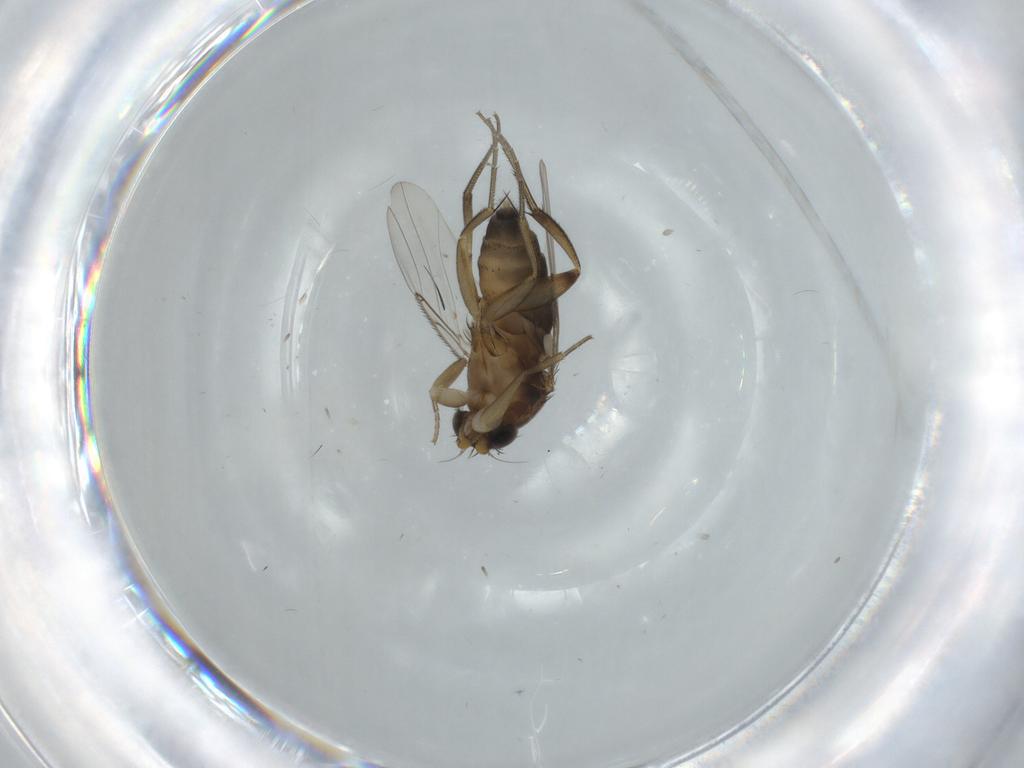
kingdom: Animalia
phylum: Arthropoda
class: Insecta
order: Diptera
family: Phoridae
